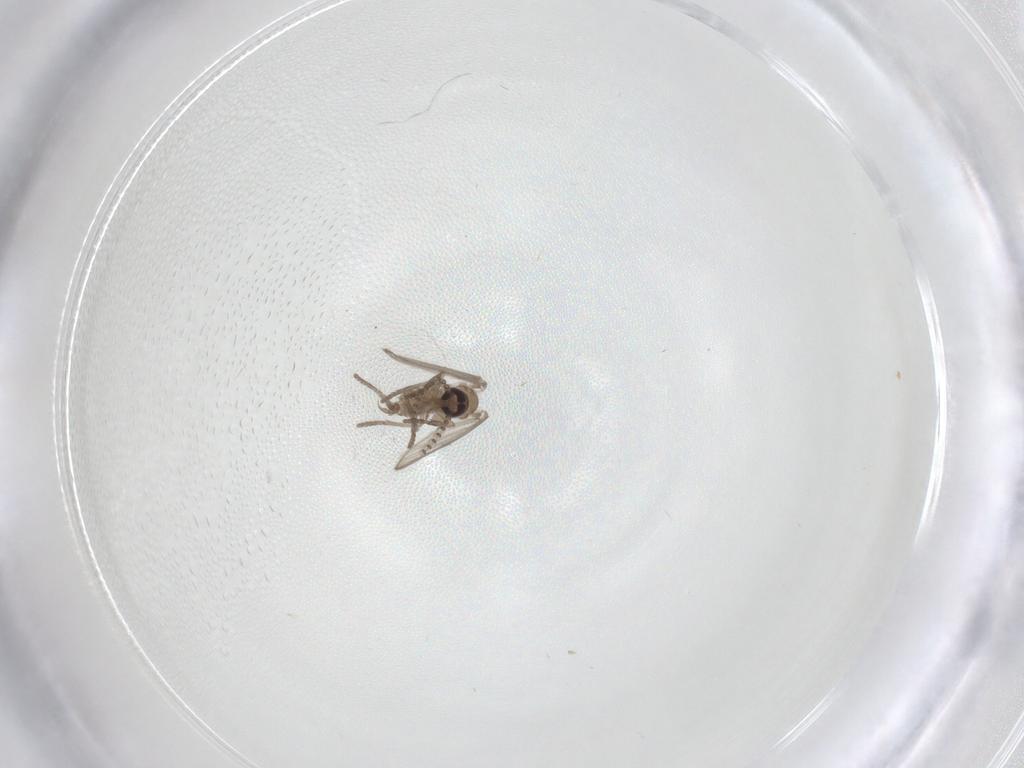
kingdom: Animalia
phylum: Arthropoda
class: Insecta
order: Diptera
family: Psychodidae
